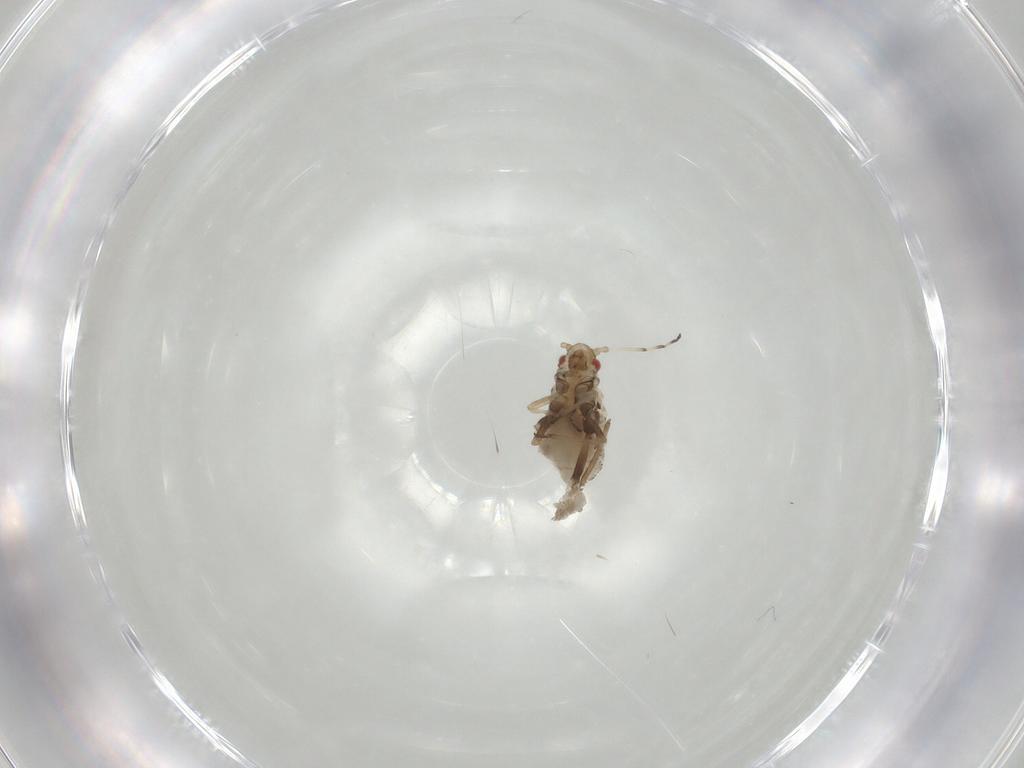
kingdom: Animalia
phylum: Arthropoda
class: Insecta
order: Hemiptera
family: Aphididae
